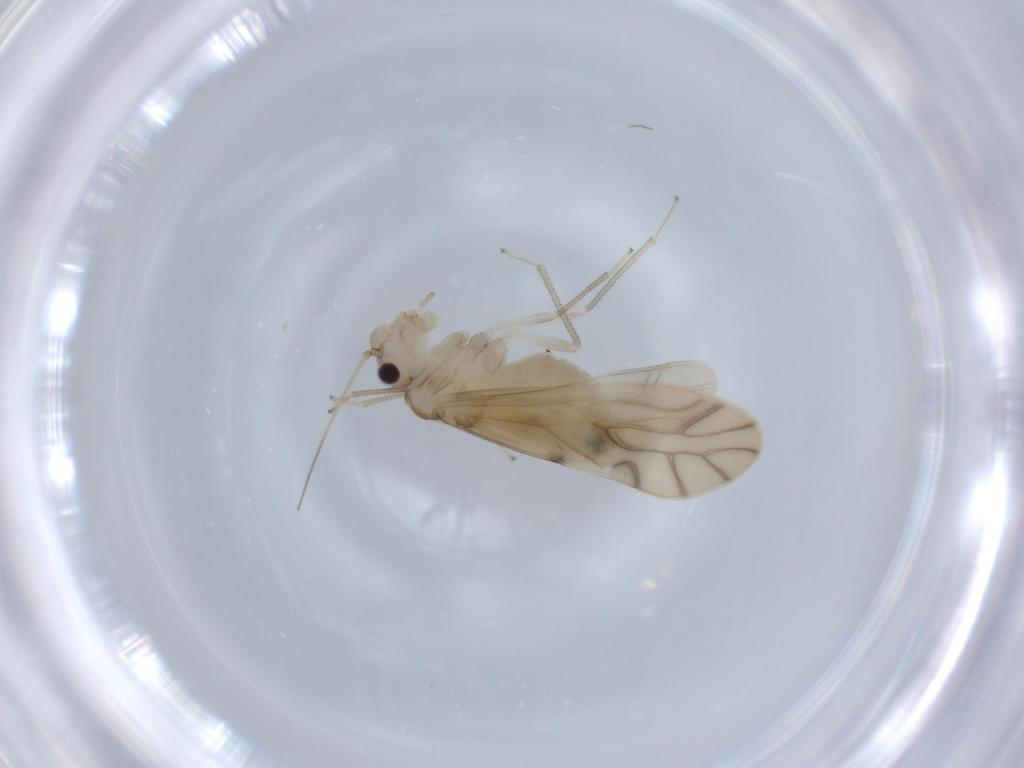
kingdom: Animalia
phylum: Arthropoda
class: Insecta
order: Psocodea
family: Caeciliusidae
